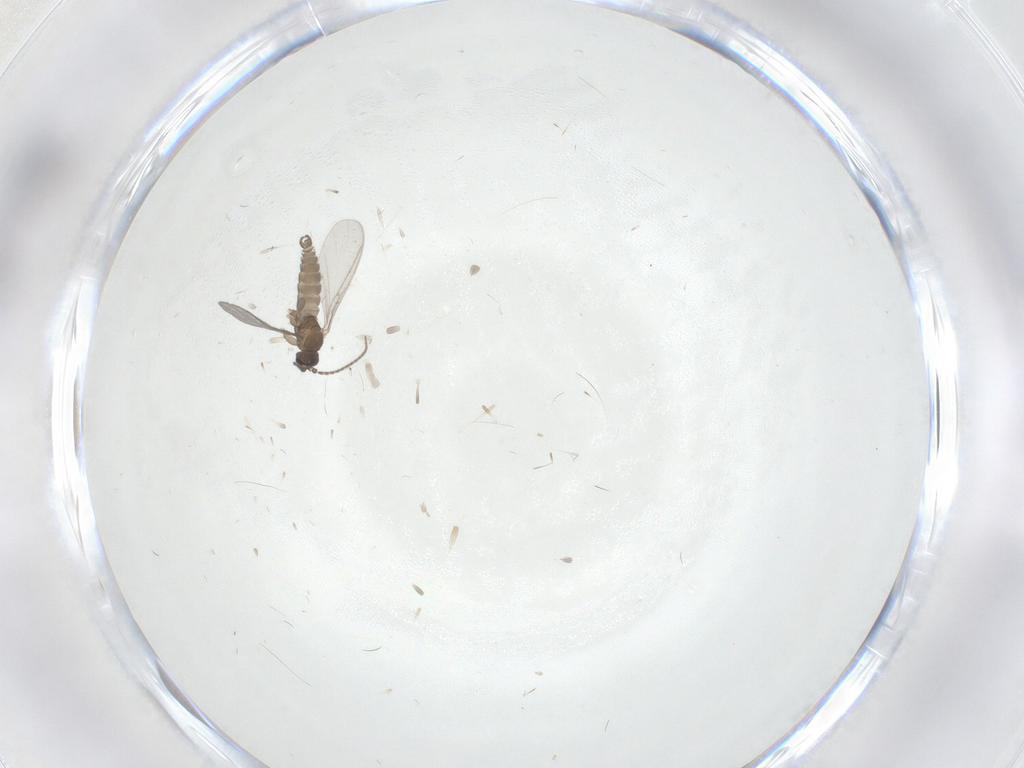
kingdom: Animalia
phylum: Arthropoda
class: Insecta
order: Diptera
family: Sciaridae
